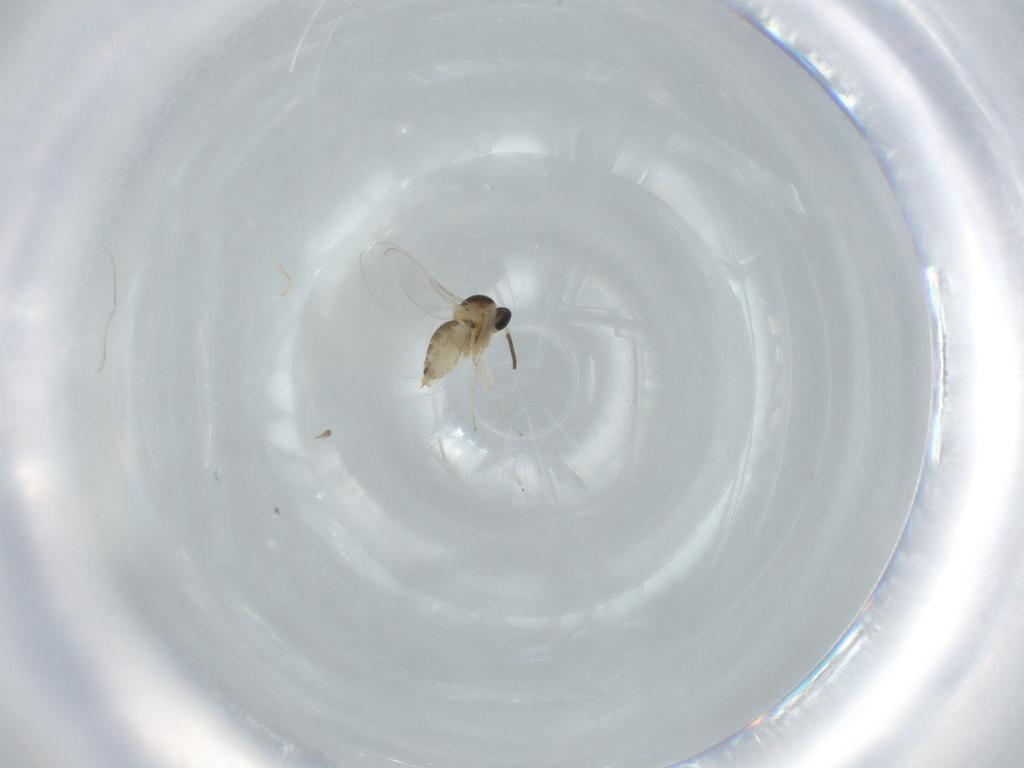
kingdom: Animalia
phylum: Arthropoda
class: Insecta
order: Diptera
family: Cecidomyiidae
